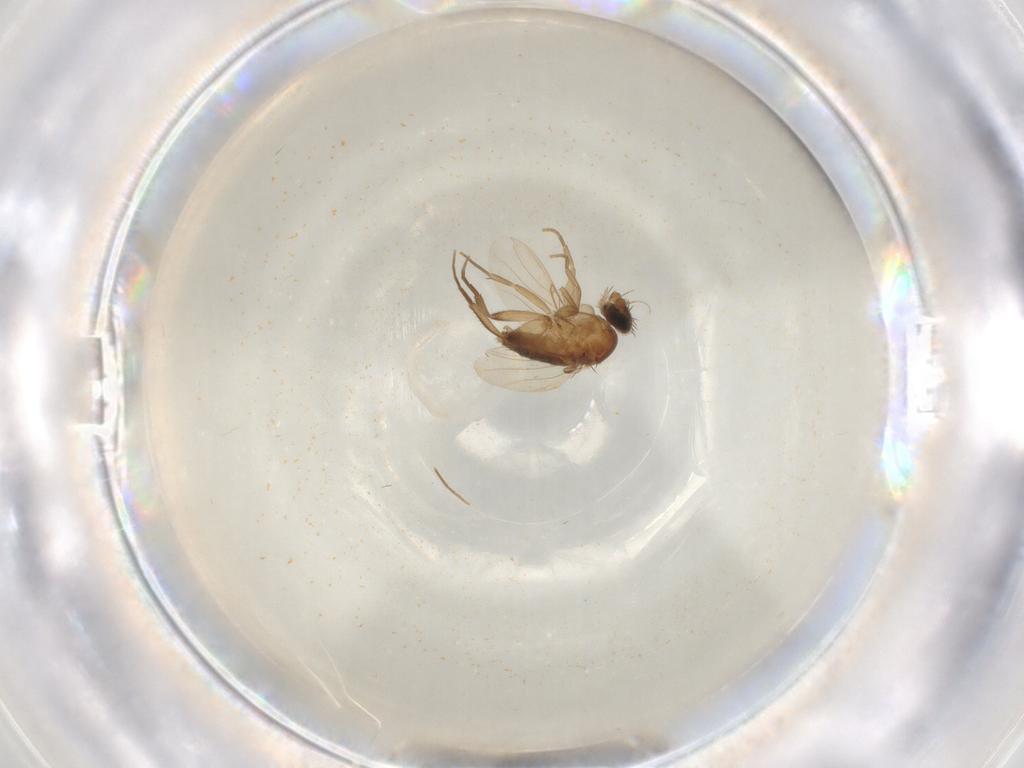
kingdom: Animalia
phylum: Arthropoda
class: Insecta
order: Diptera
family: Phoridae
